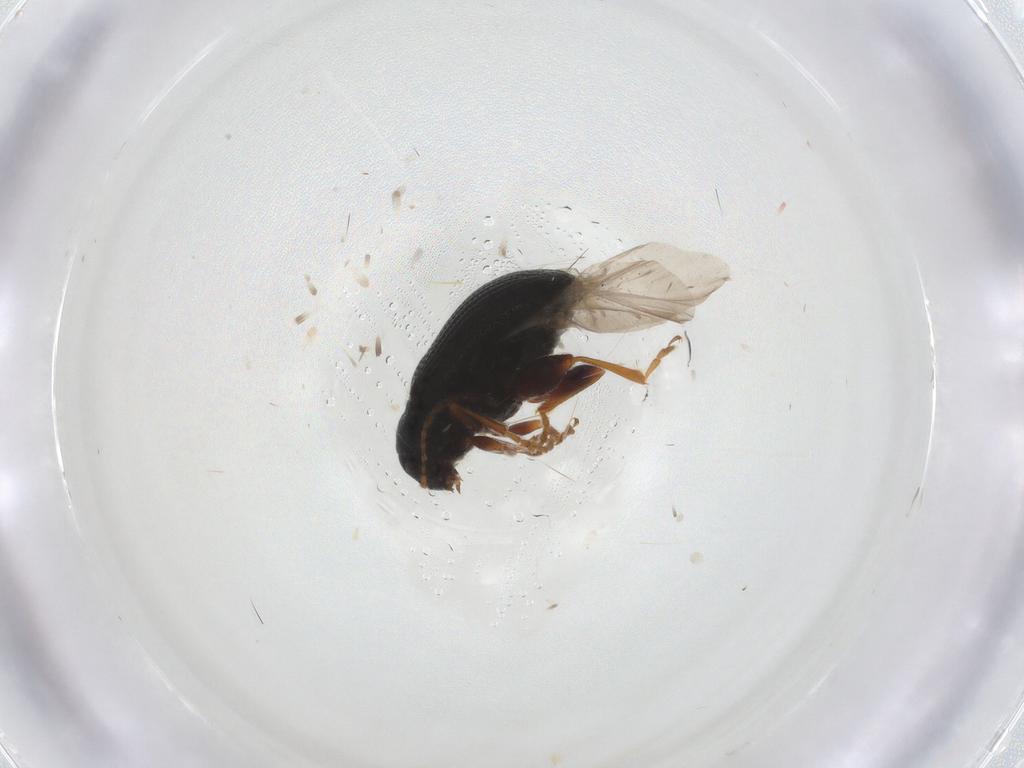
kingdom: Animalia
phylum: Arthropoda
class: Insecta
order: Coleoptera
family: Chrysomelidae
